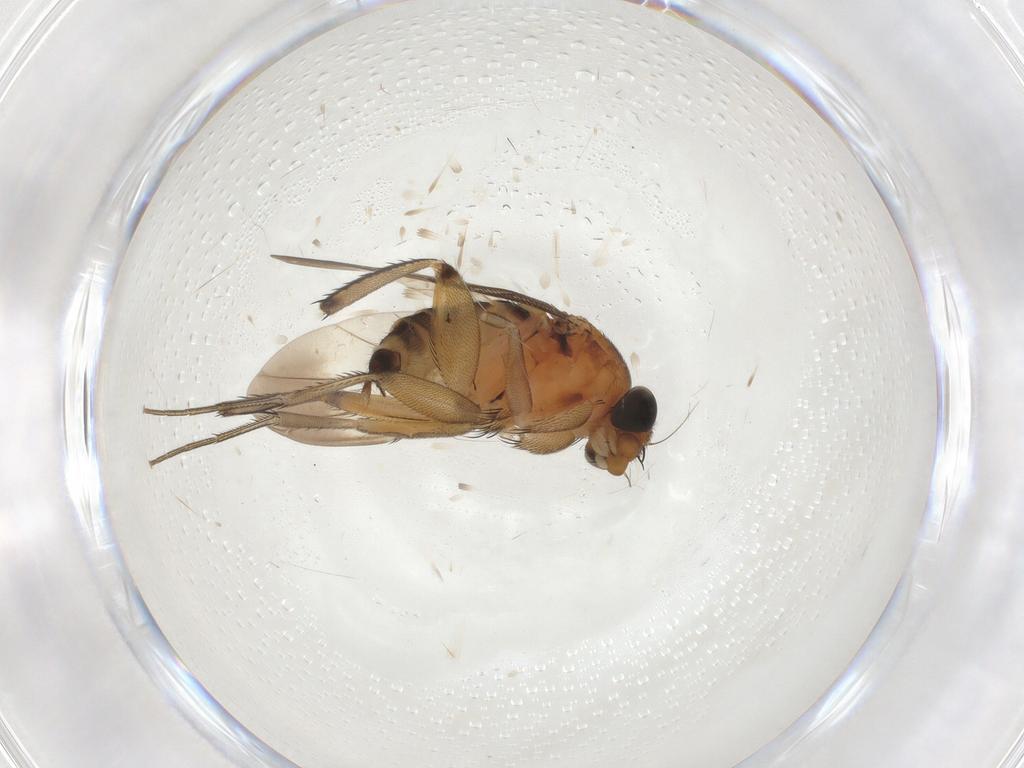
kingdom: Animalia
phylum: Arthropoda
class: Insecta
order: Diptera
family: Phoridae
